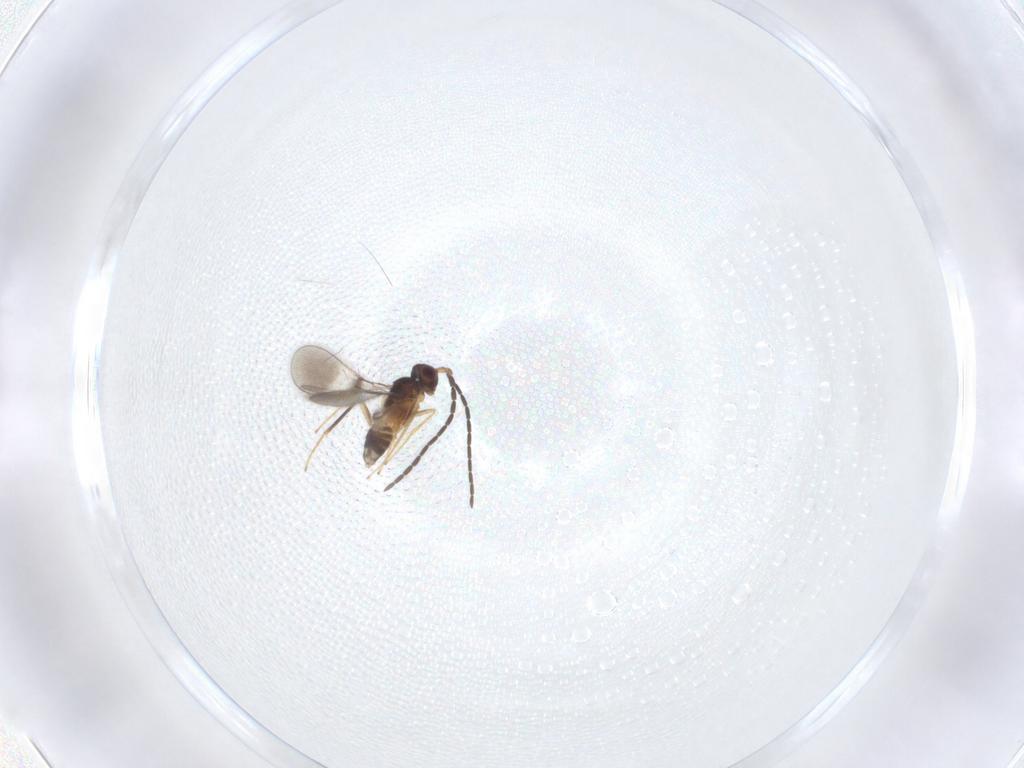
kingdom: Animalia
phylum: Arthropoda
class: Insecta
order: Hymenoptera
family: Mymaridae
